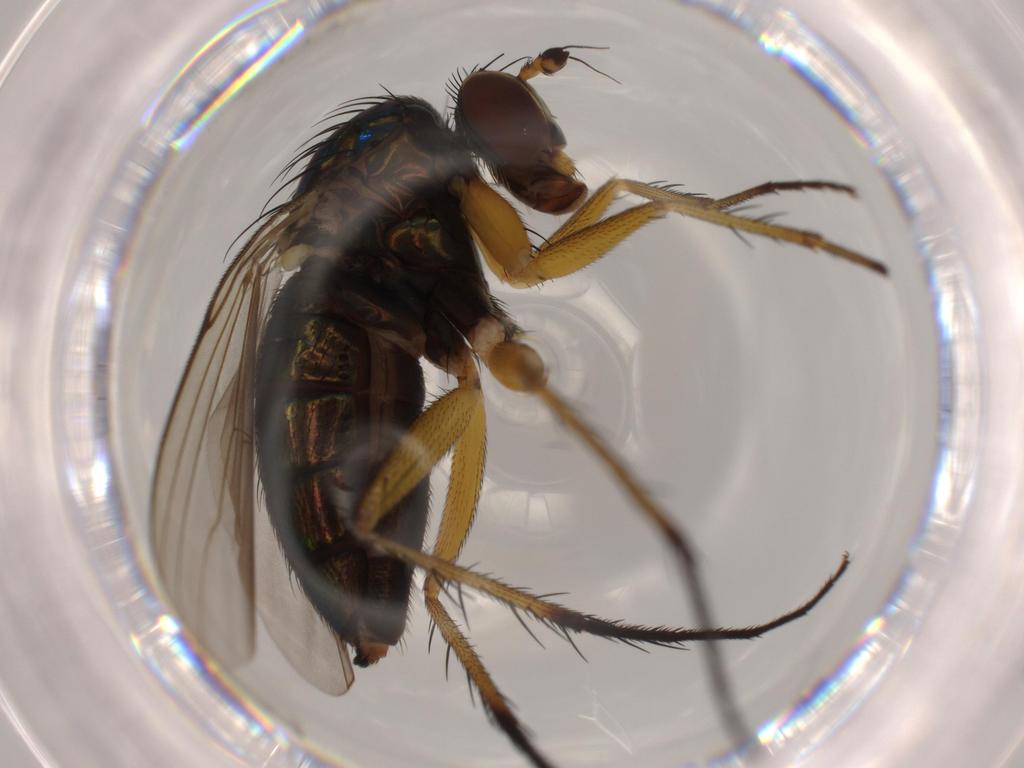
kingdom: Animalia
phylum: Arthropoda
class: Insecta
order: Diptera
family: Dolichopodidae
